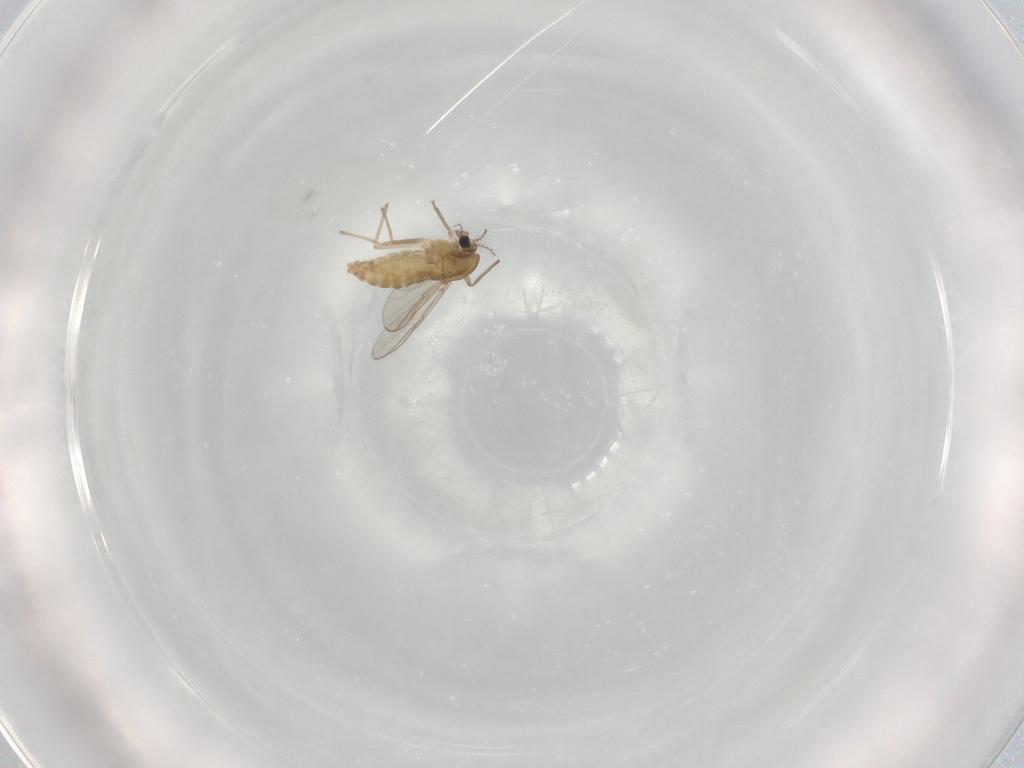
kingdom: Animalia
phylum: Arthropoda
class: Insecta
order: Diptera
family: Chironomidae
